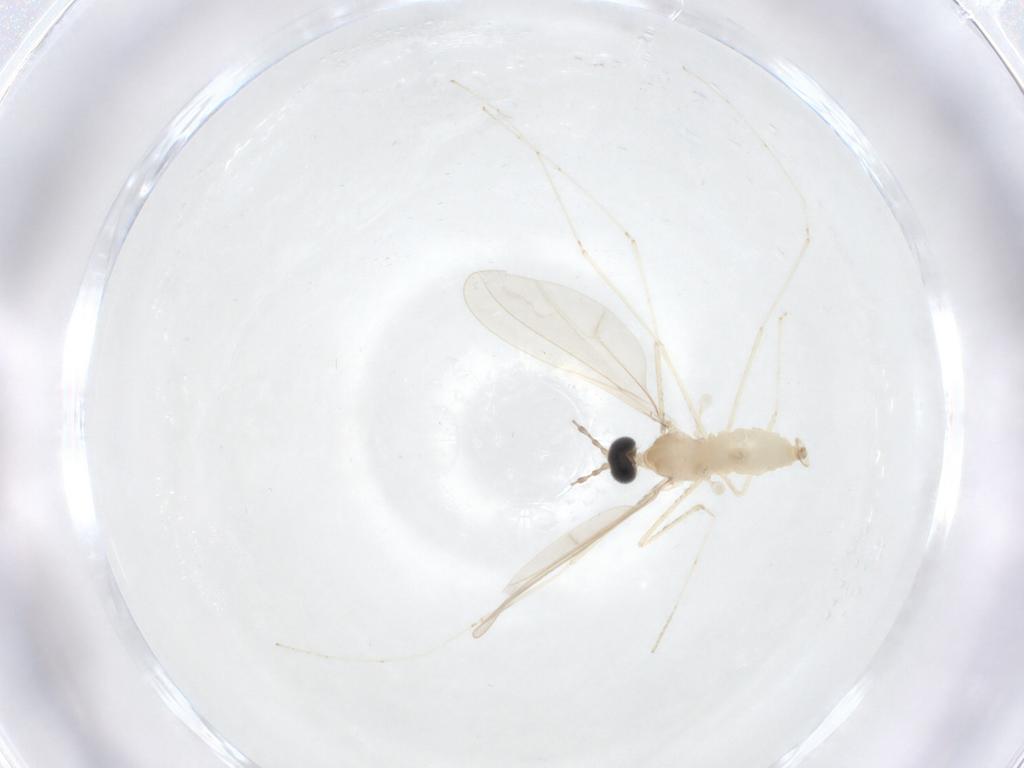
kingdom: Animalia
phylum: Arthropoda
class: Insecta
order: Diptera
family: Cecidomyiidae
